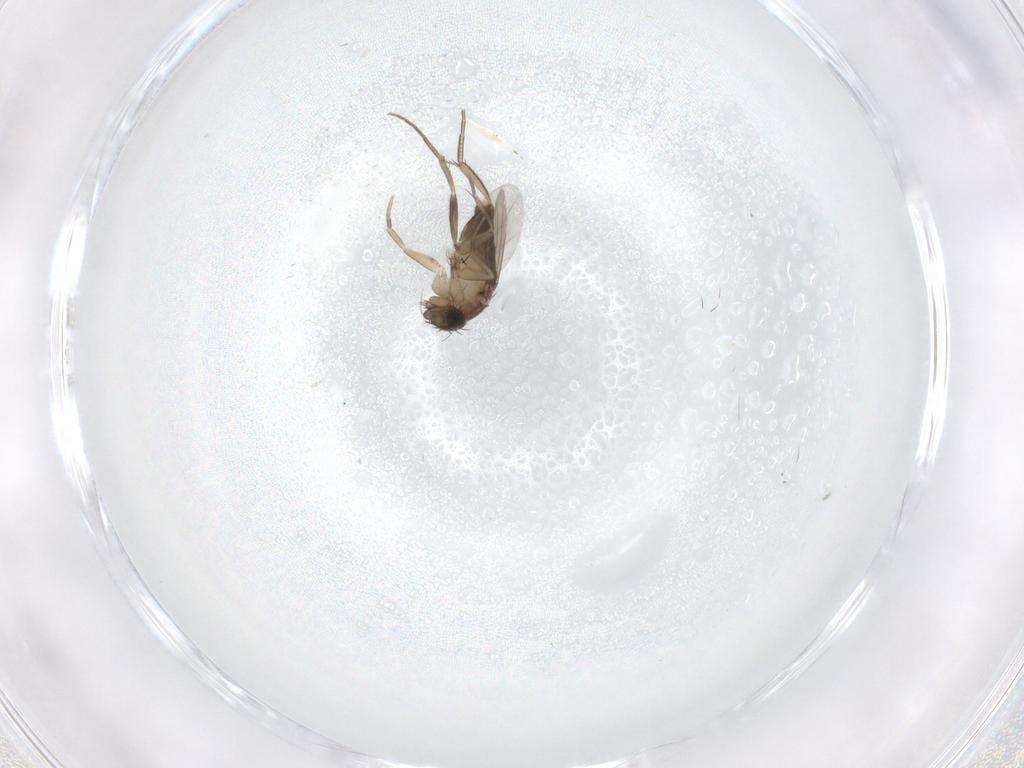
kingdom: Animalia
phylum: Arthropoda
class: Insecta
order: Diptera
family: Phoridae
